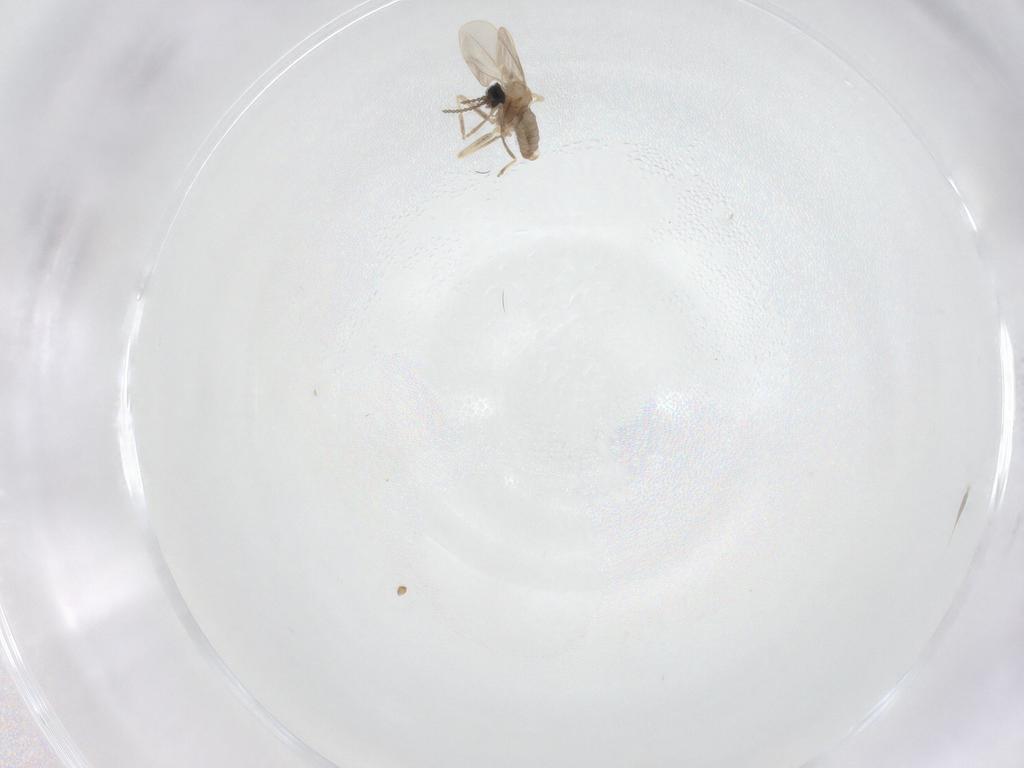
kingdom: Animalia
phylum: Arthropoda
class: Insecta
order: Diptera
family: Cecidomyiidae
